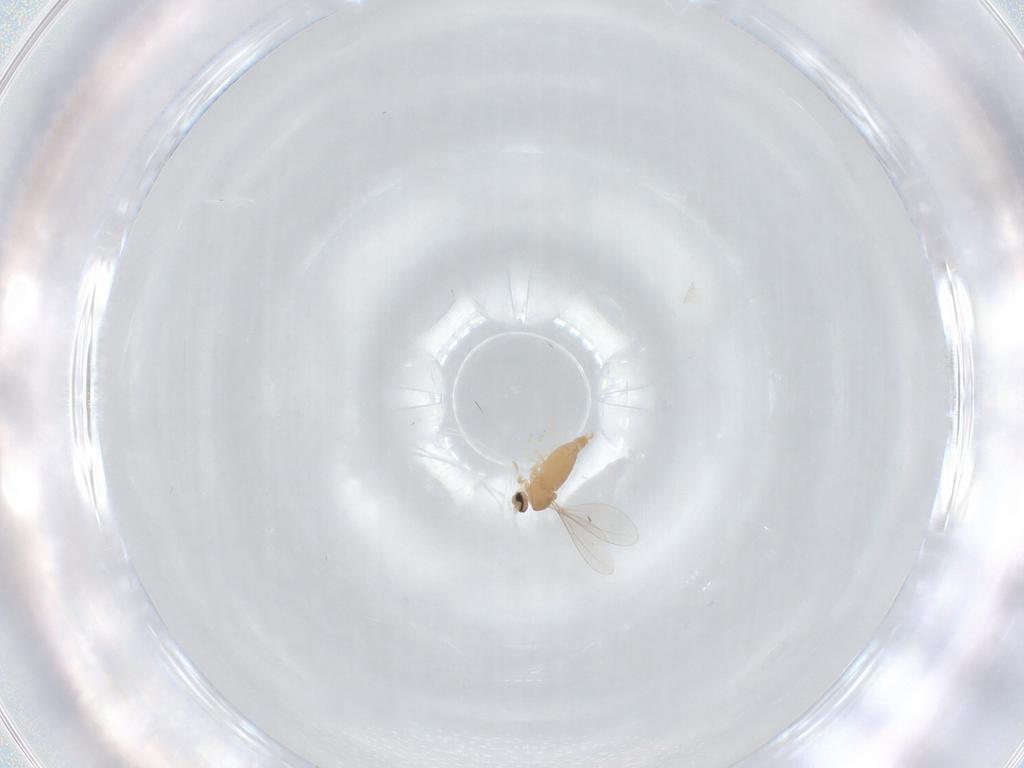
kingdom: Animalia
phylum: Arthropoda
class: Insecta
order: Diptera
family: Cecidomyiidae
